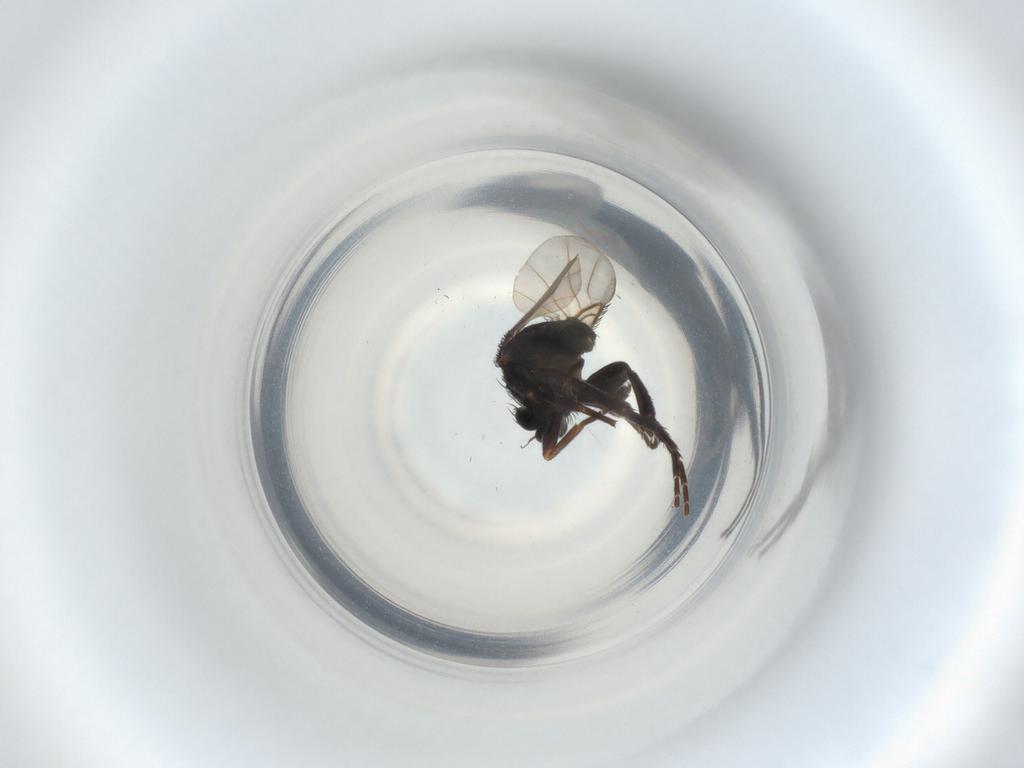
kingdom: Animalia
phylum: Arthropoda
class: Insecta
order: Diptera
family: Phoridae
